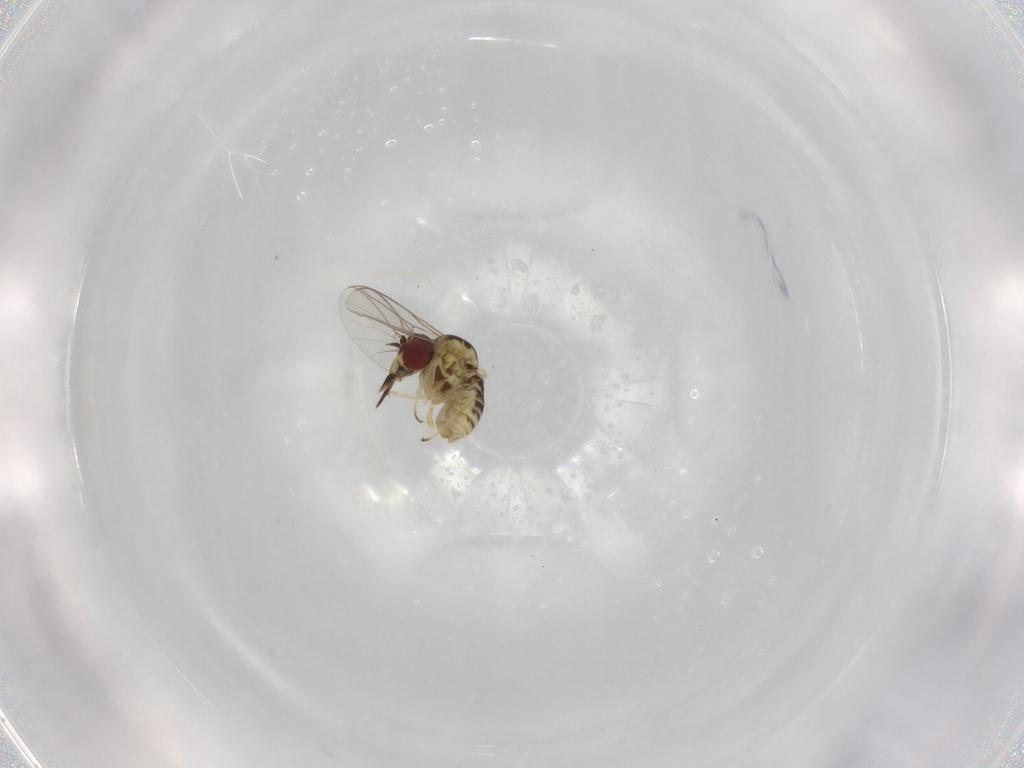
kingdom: Animalia
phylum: Arthropoda
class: Insecta
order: Diptera
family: Mythicomyiidae
